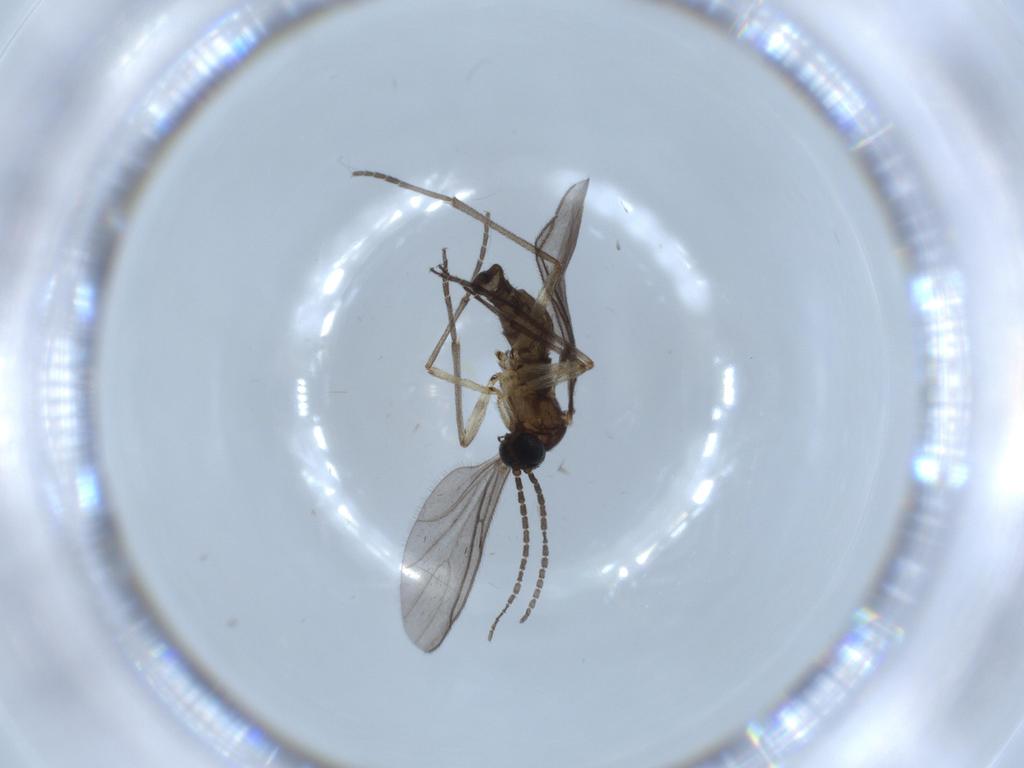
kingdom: Animalia
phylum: Arthropoda
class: Insecta
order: Diptera
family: Sciaridae
